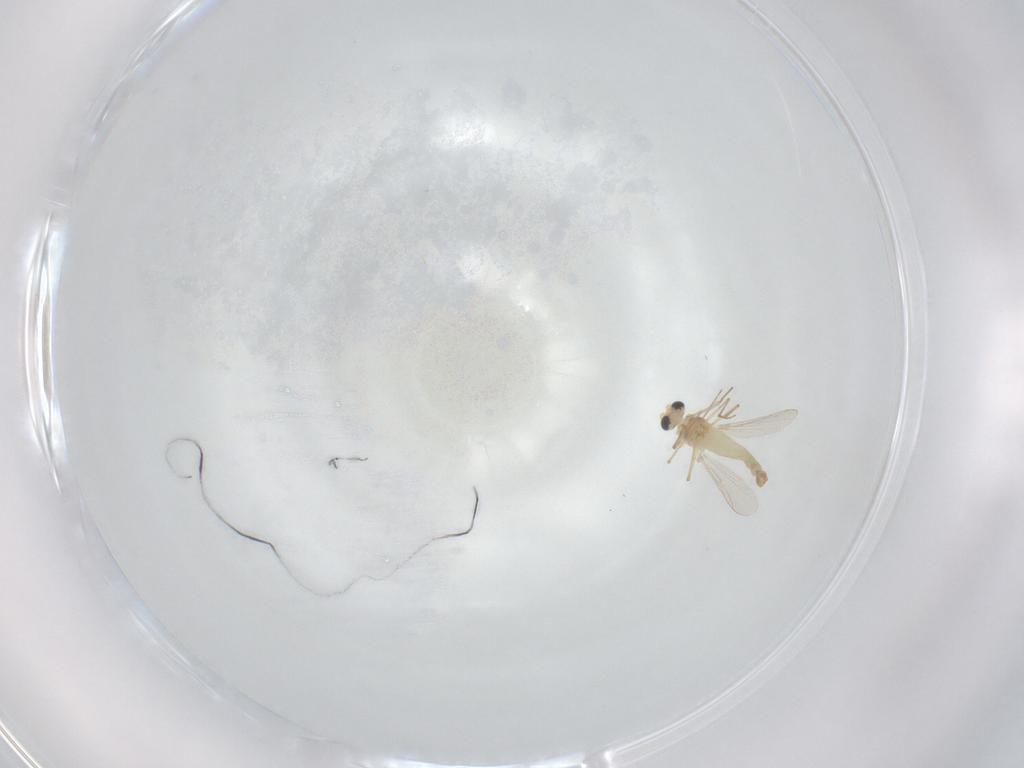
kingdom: Animalia
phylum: Arthropoda
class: Insecta
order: Diptera
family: Chironomidae
